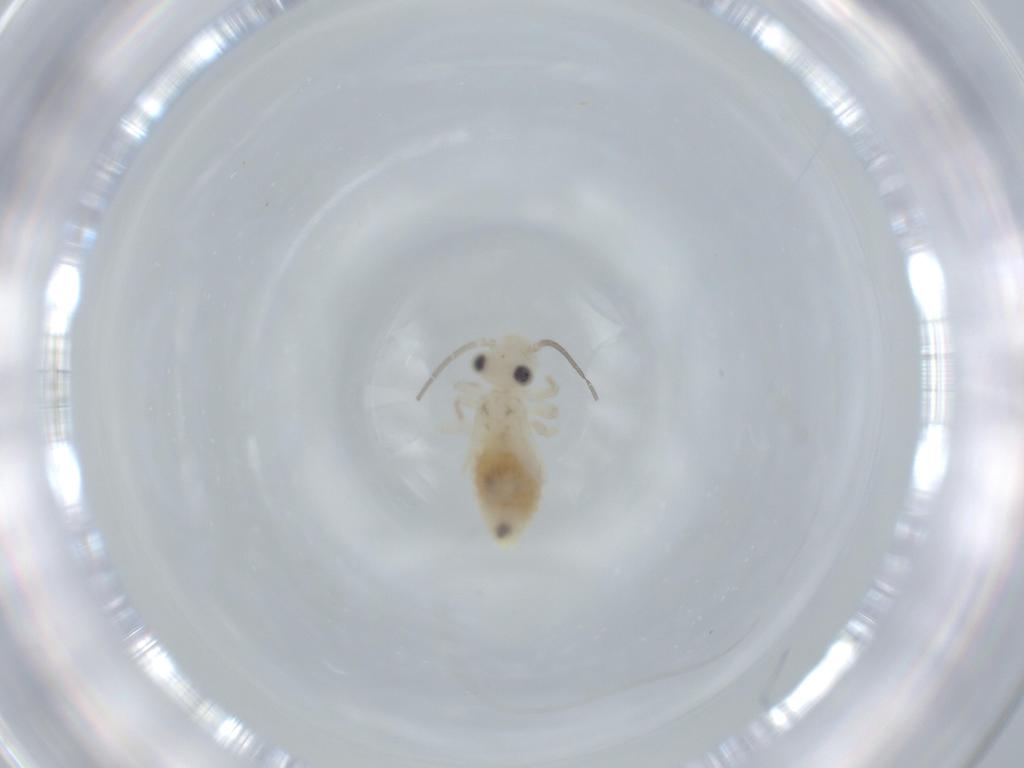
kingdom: Animalia
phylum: Arthropoda
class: Insecta
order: Psocodea
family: Caeciliusidae
